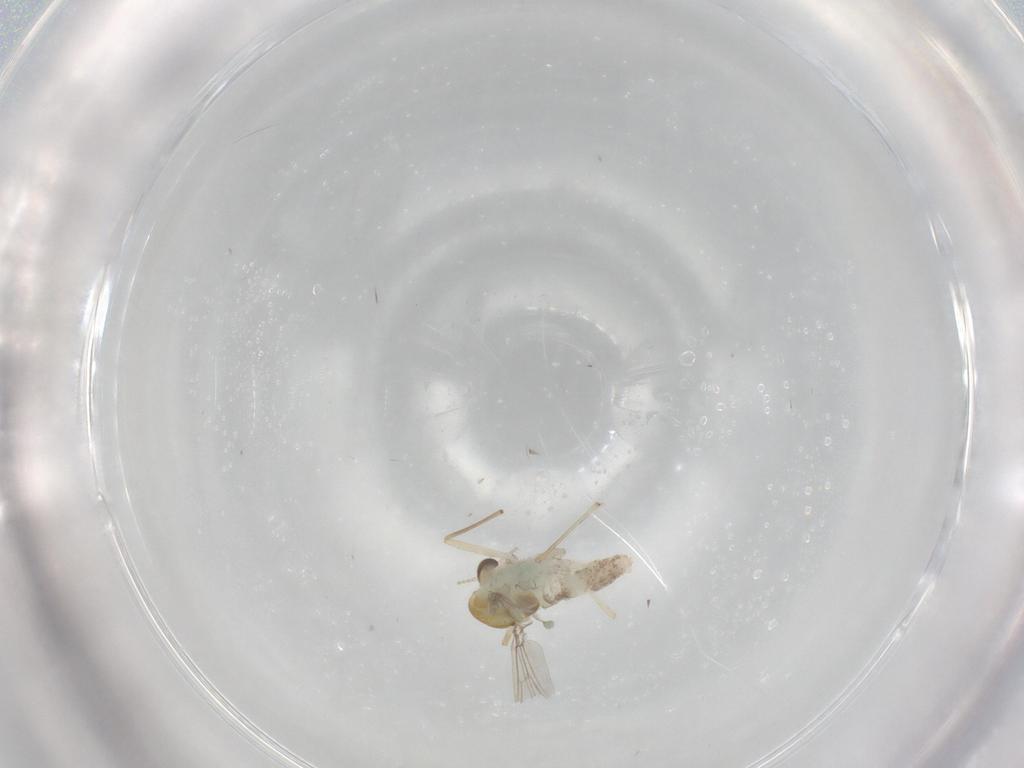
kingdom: Animalia
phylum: Arthropoda
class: Insecta
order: Diptera
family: Chironomidae
